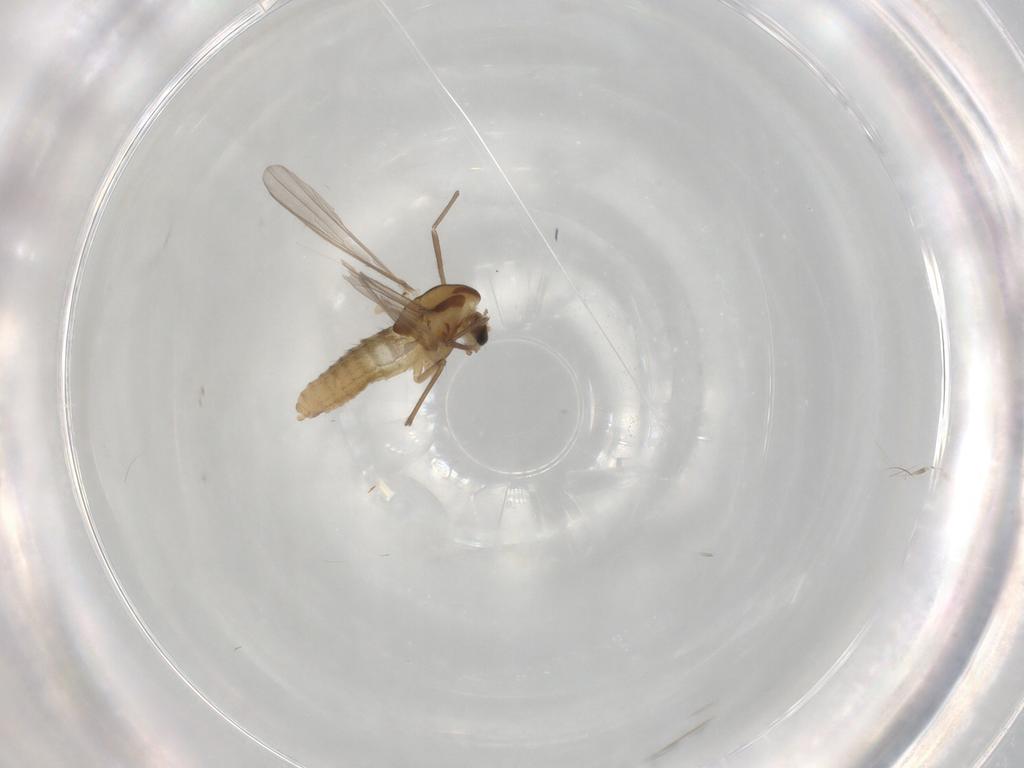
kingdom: Animalia
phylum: Arthropoda
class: Insecta
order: Diptera
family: Chironomidae
